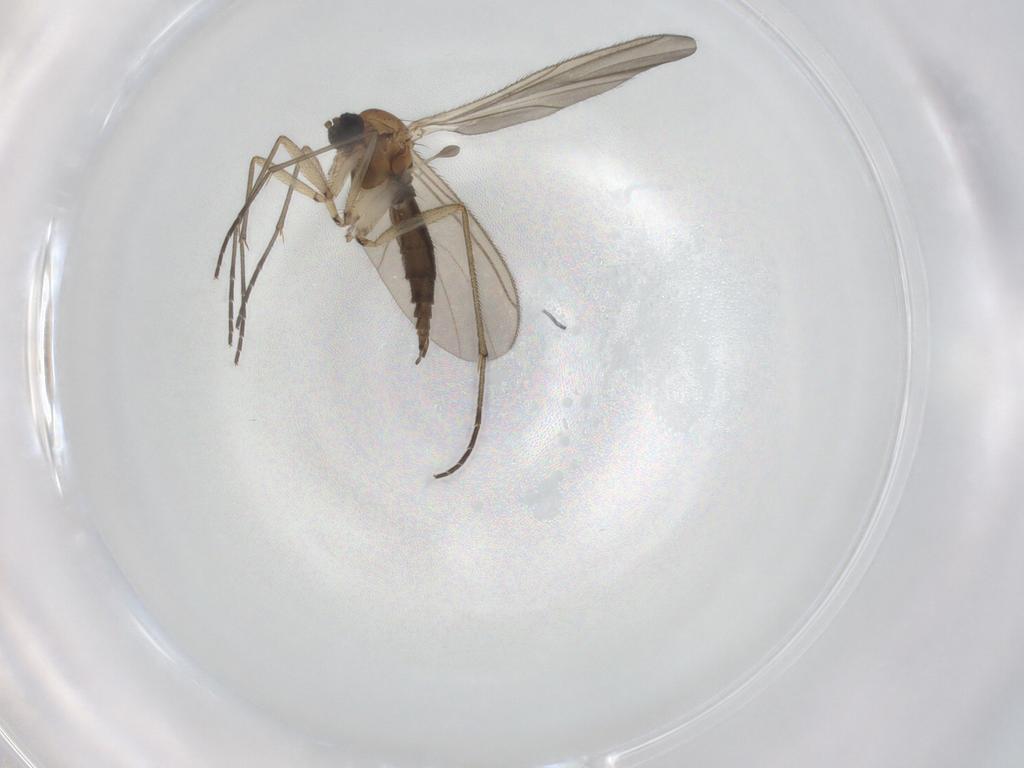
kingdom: Animalia
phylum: Arthropoda
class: Insecta
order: Diptera
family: Sciaridae
